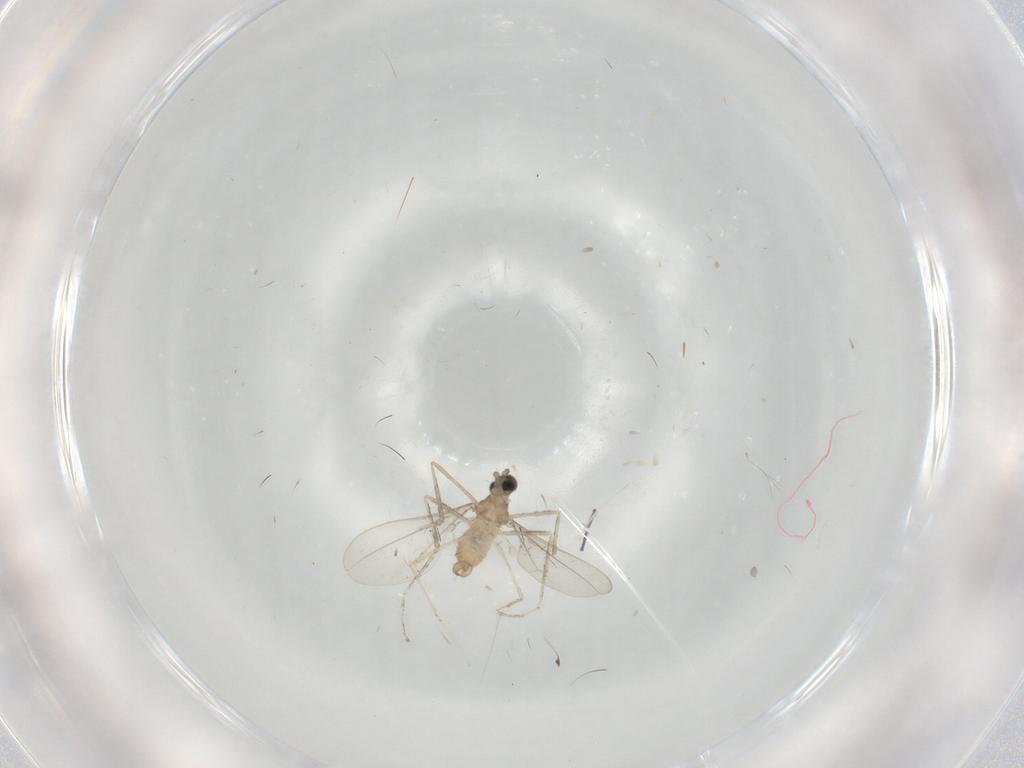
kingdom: Animalia
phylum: Arthropoda
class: Insecta
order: Diptera
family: Cecidomyiidae
